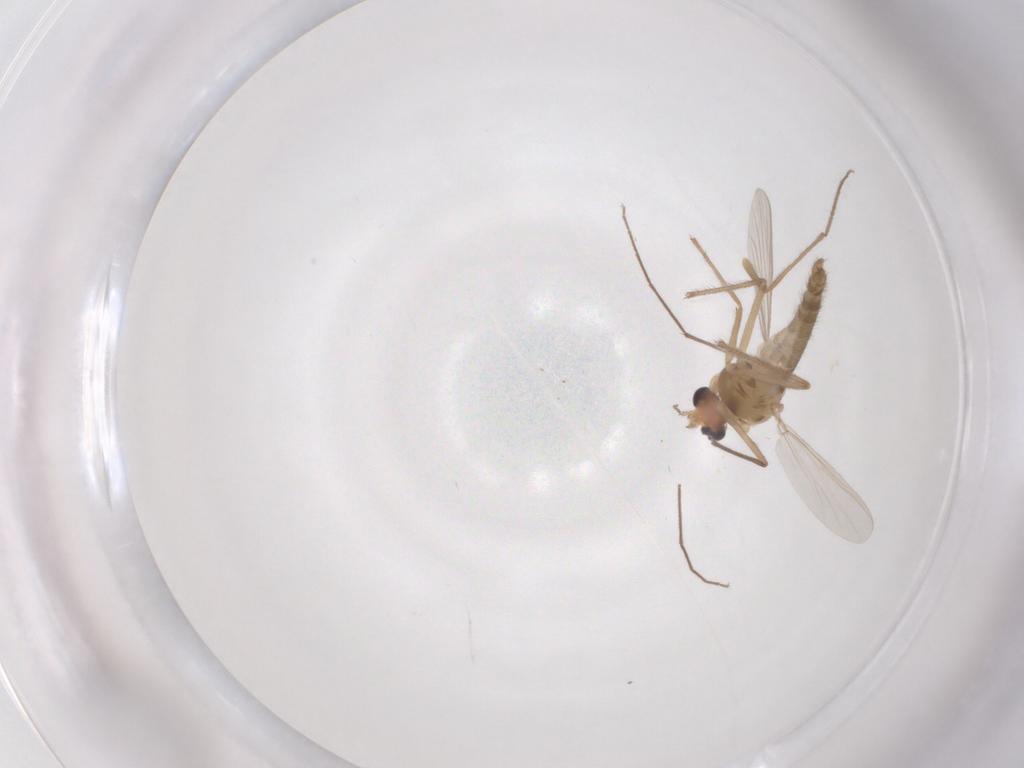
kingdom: Animalia
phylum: Arthropoda
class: Insecta
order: Diptera
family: Chironomidae
